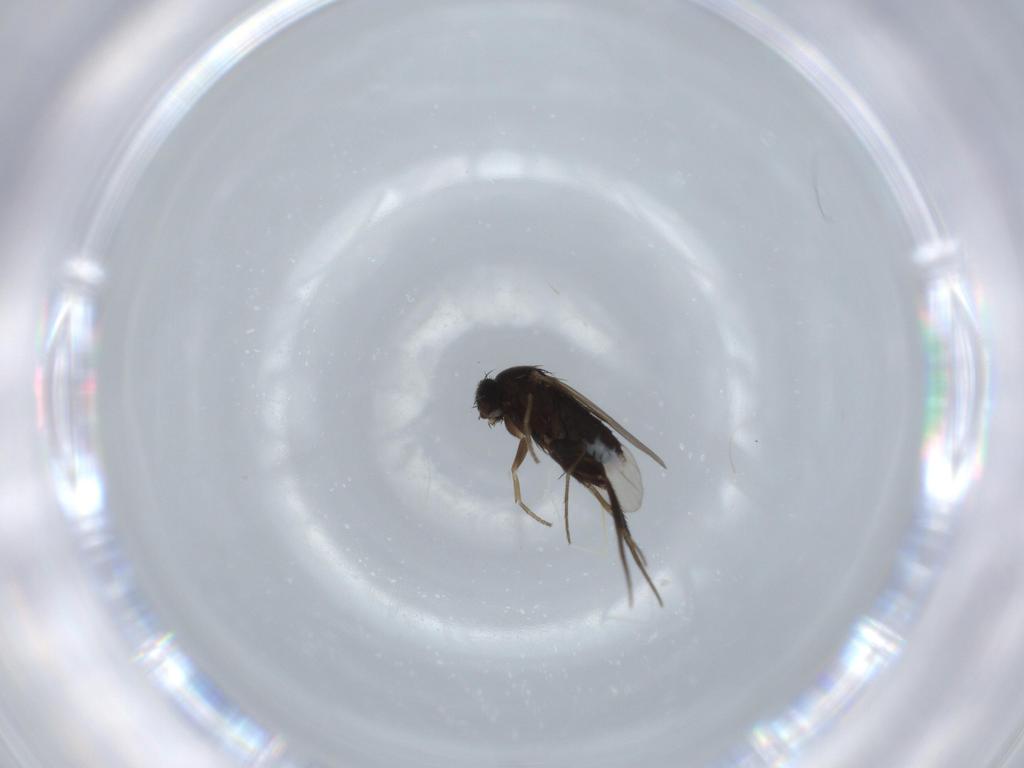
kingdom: Animalia
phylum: Arthropoda
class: Insecta
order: Diptera
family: Phoridae
